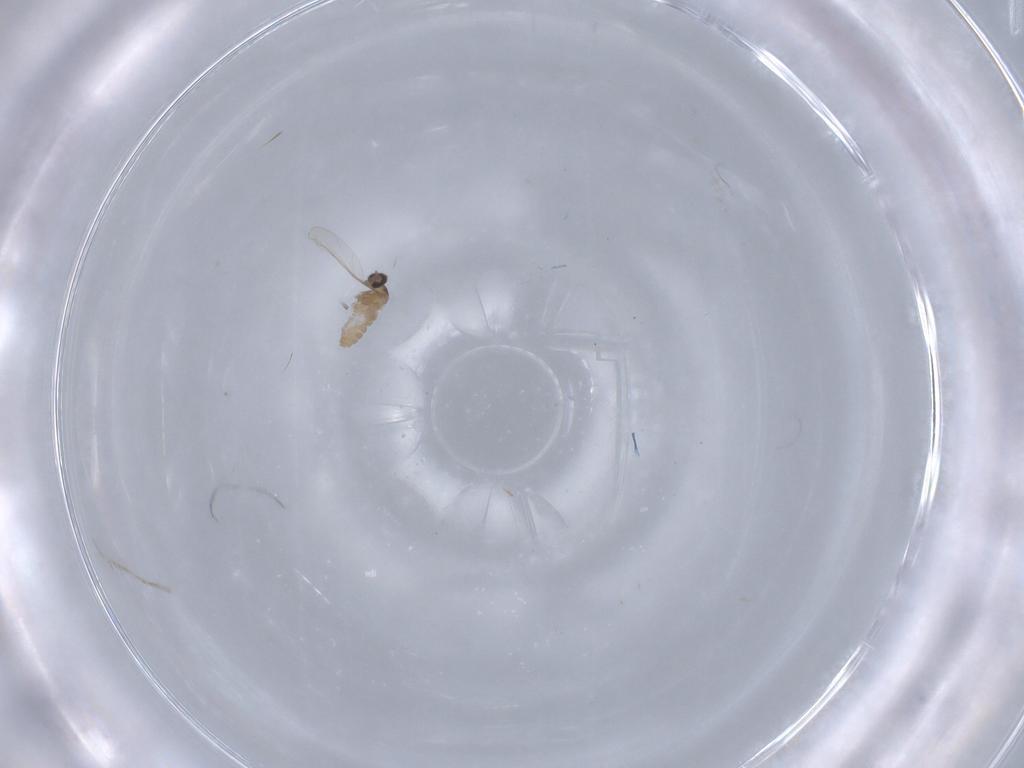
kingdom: Animalia
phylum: Arthropoda
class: Insecta
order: Diptera
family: Cecidomyiidae
